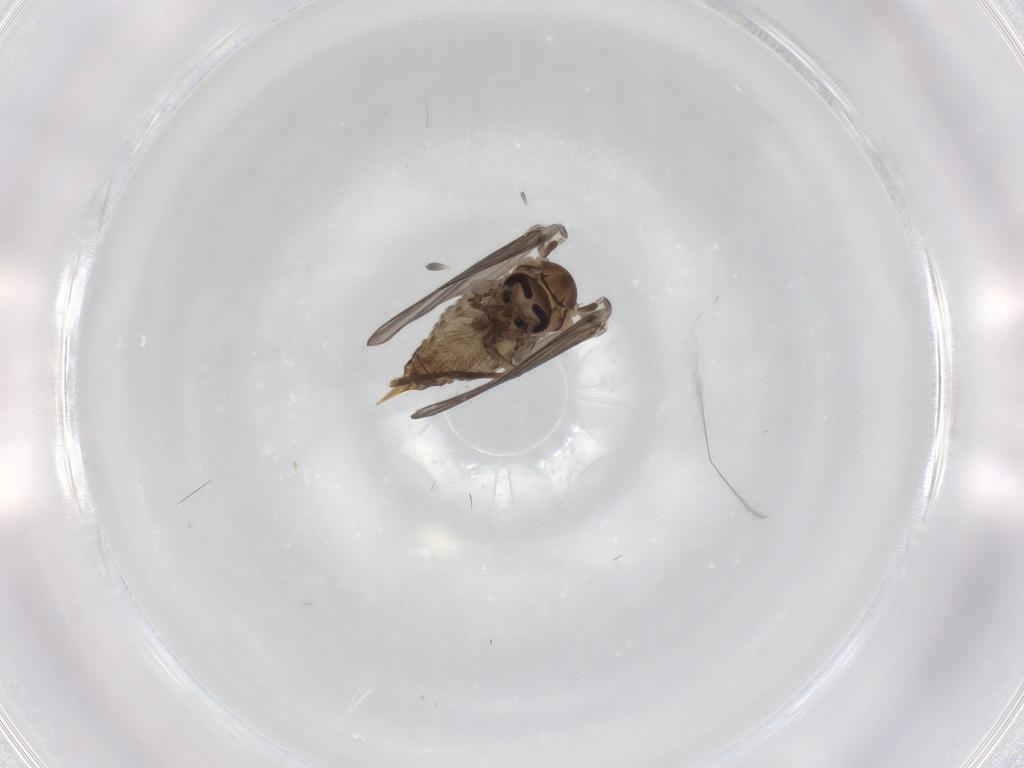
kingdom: Animalia
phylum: Arthropoda
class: Insecta
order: Diptera
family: Psychodidae
